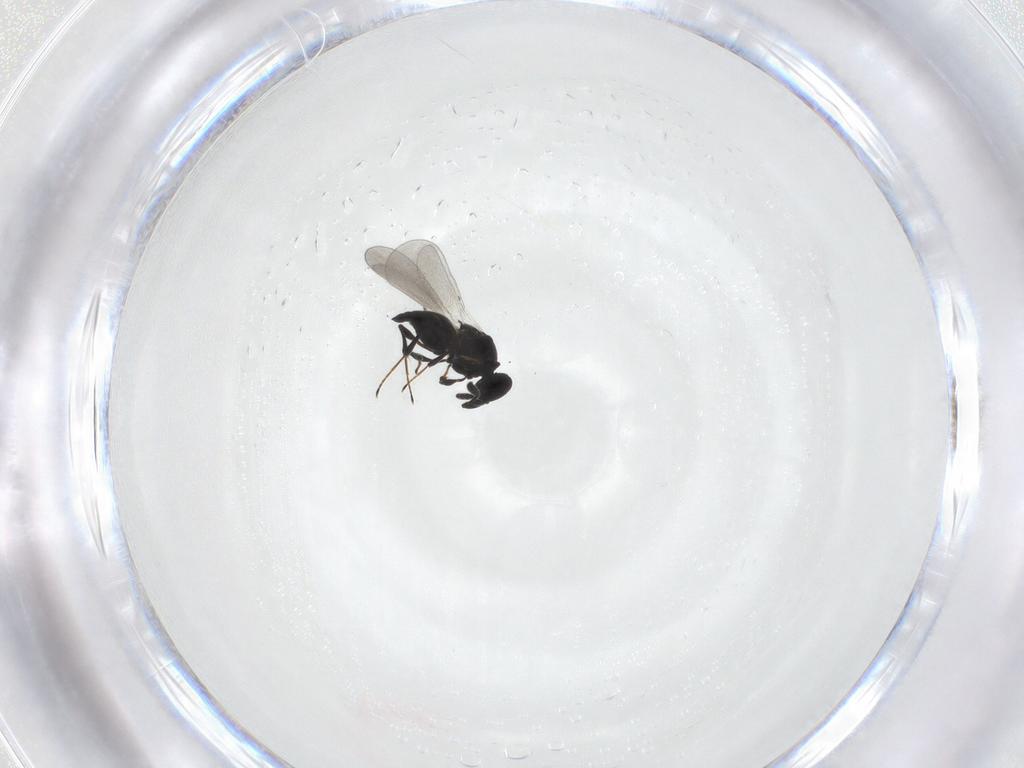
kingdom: Animalia
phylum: Arthropoda
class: Insecta
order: Hymenoptera
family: Platygastridae
